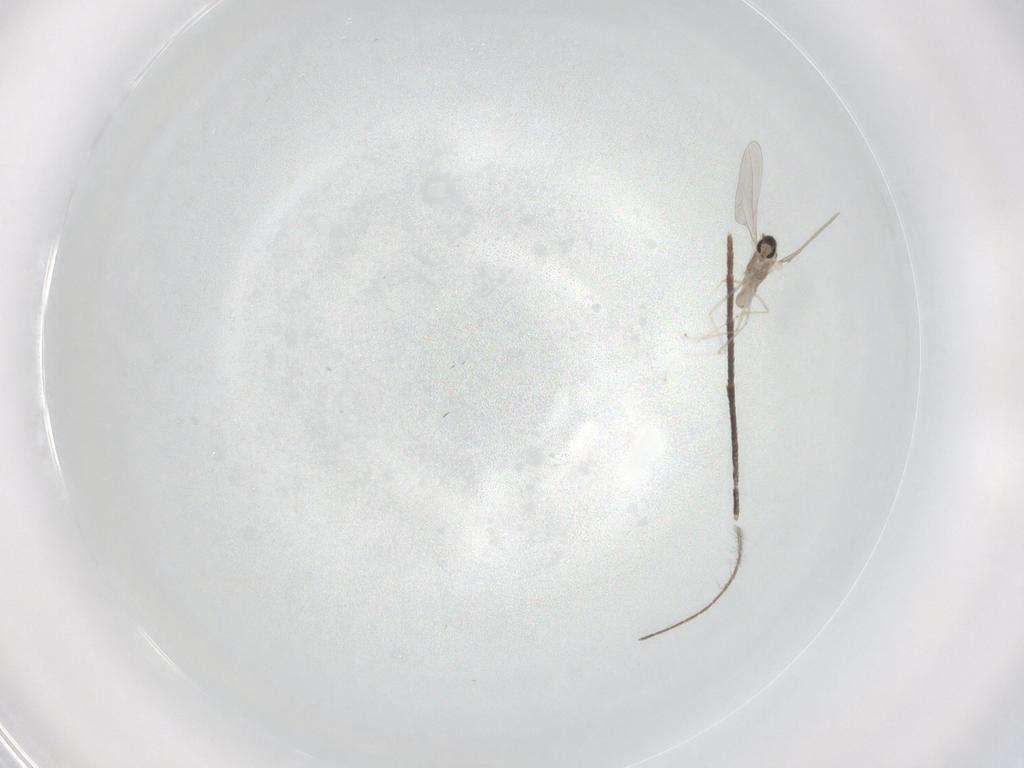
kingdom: Animalia
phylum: Arthropoda
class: Insecta
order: Diptera
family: Culicidae
